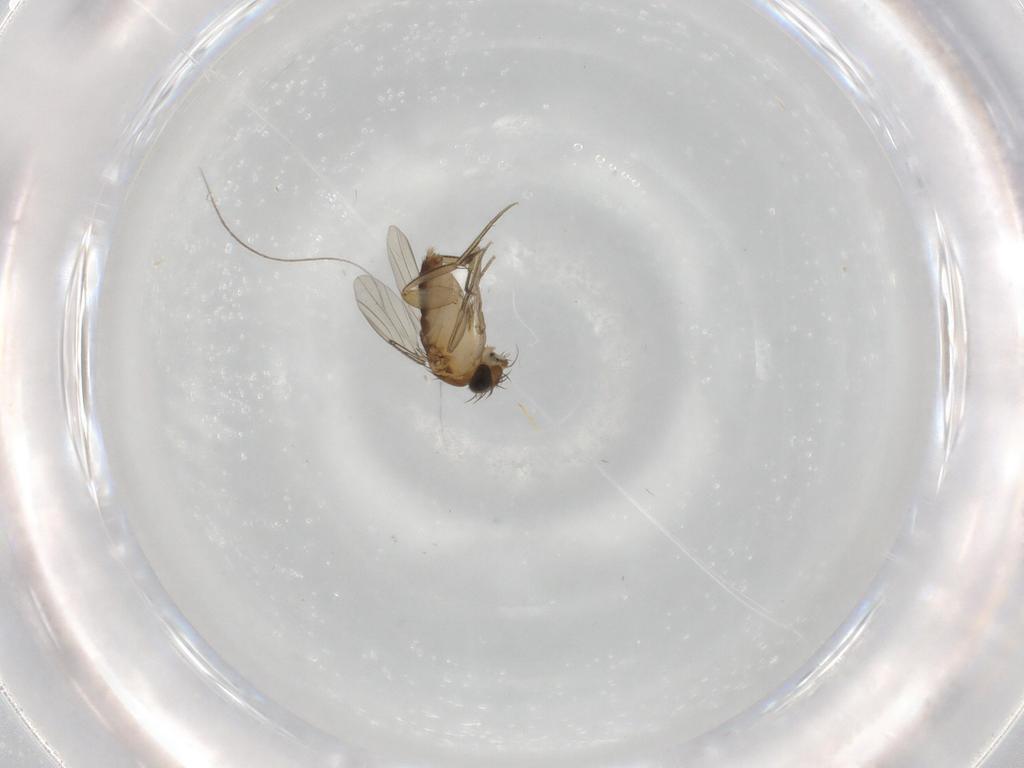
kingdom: Animalia
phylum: Arthropoda
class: Insecta
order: Diptera
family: Phoridae
